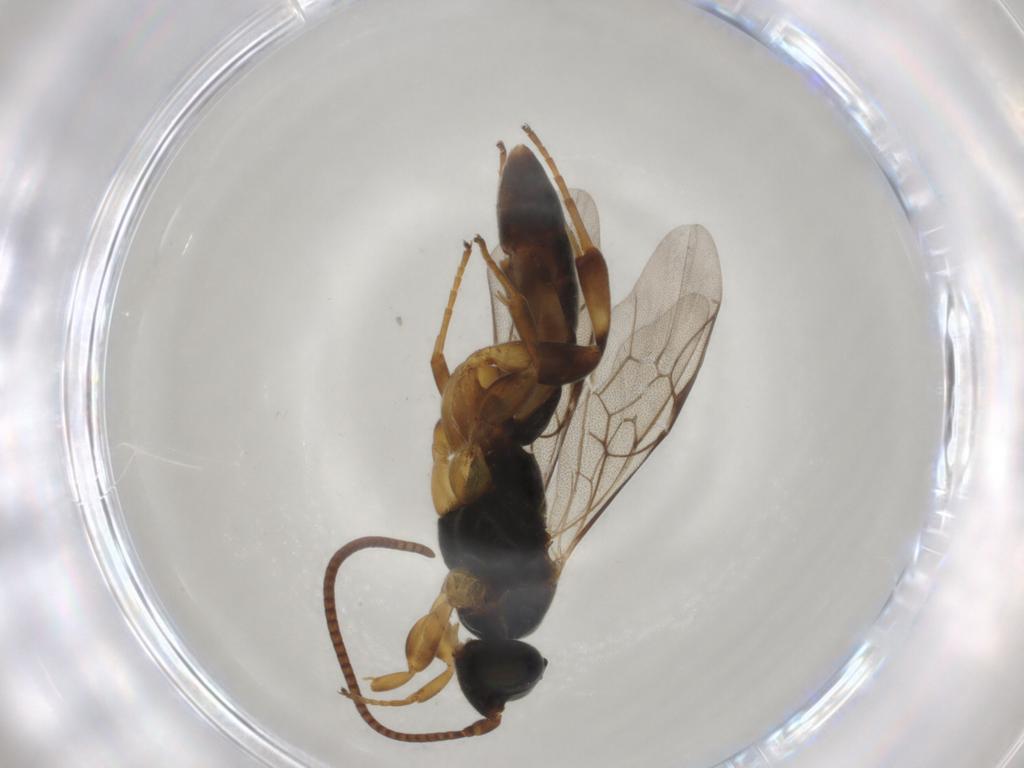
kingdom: Animalia
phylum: Arthropoda
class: Insecta
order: Hymenoptera
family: Ichneumonidae
